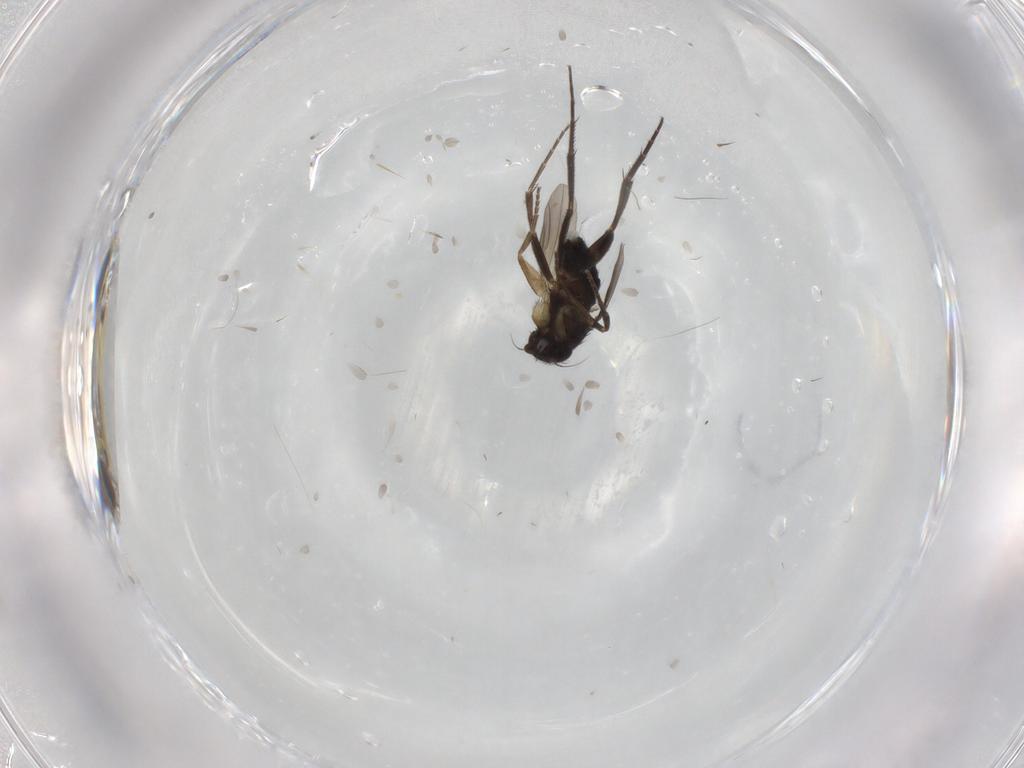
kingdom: Animalia
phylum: Arthropoda
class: Insecta
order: Diptera
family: Phoridae
